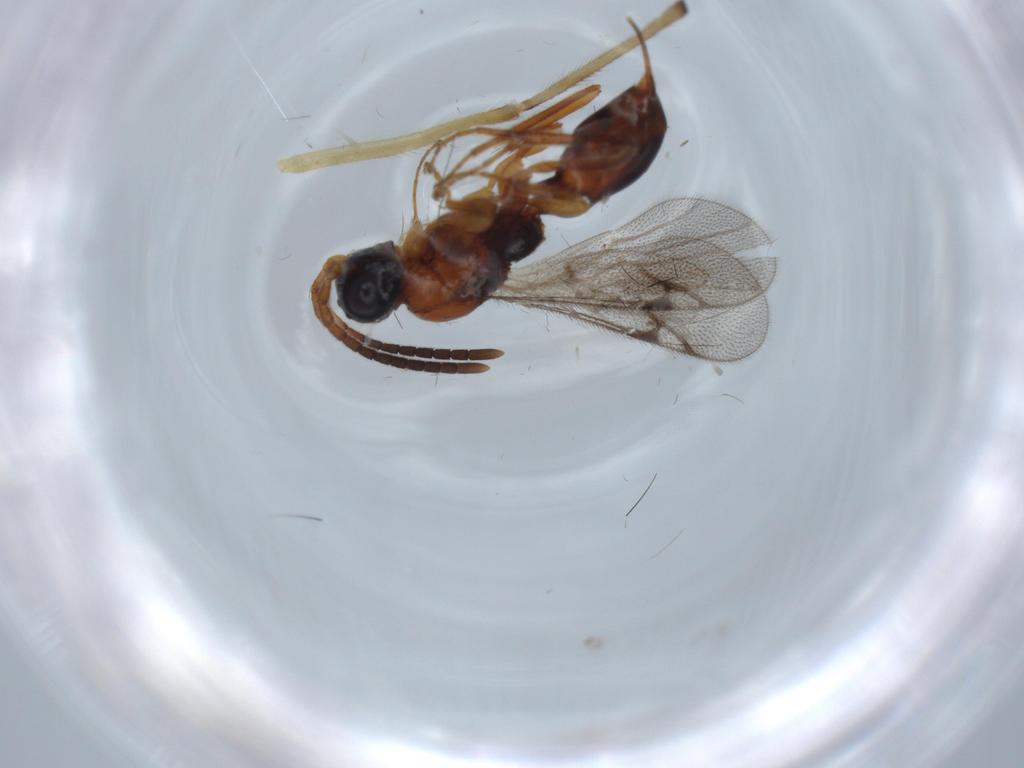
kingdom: Animalia
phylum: Arthropoda
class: Insecta
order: Hymenoptera
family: Proctotrupidae
